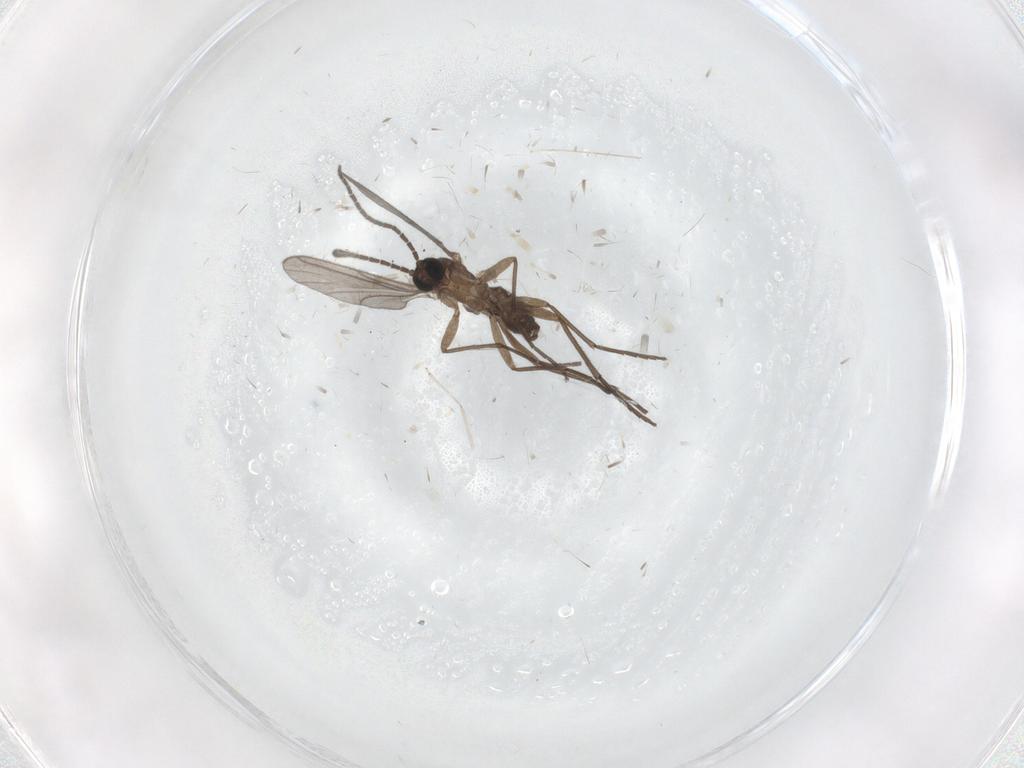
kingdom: Animalia
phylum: Arthropoda
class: Insecta
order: Diptera
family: Sciaridae
